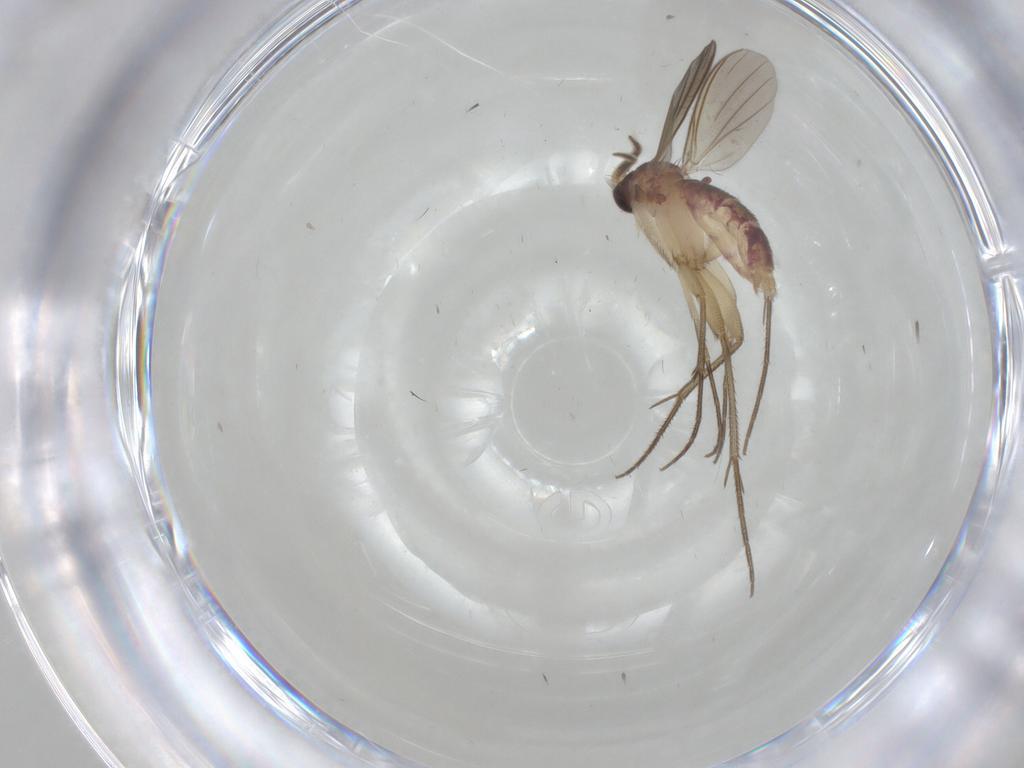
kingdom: Animalia
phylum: Arthropoda
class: Insecta
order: Diptera
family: Mycetophilidae
